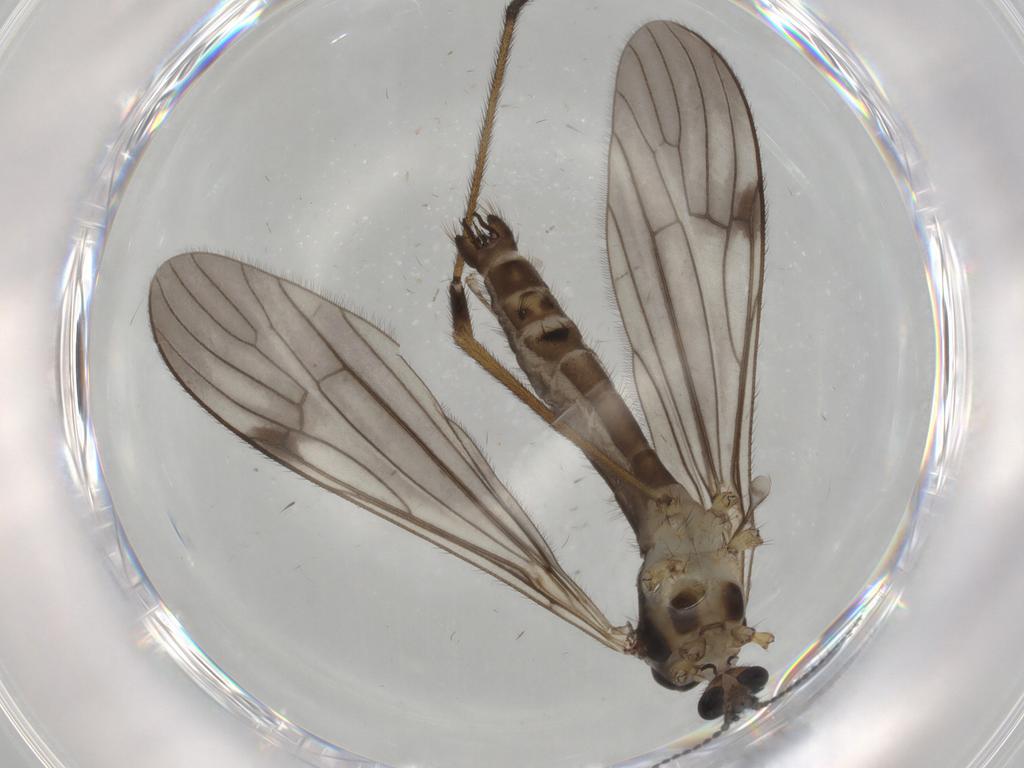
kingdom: Animalia
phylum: Arthropoda
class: Insecta
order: Diptera
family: Limoniidae
